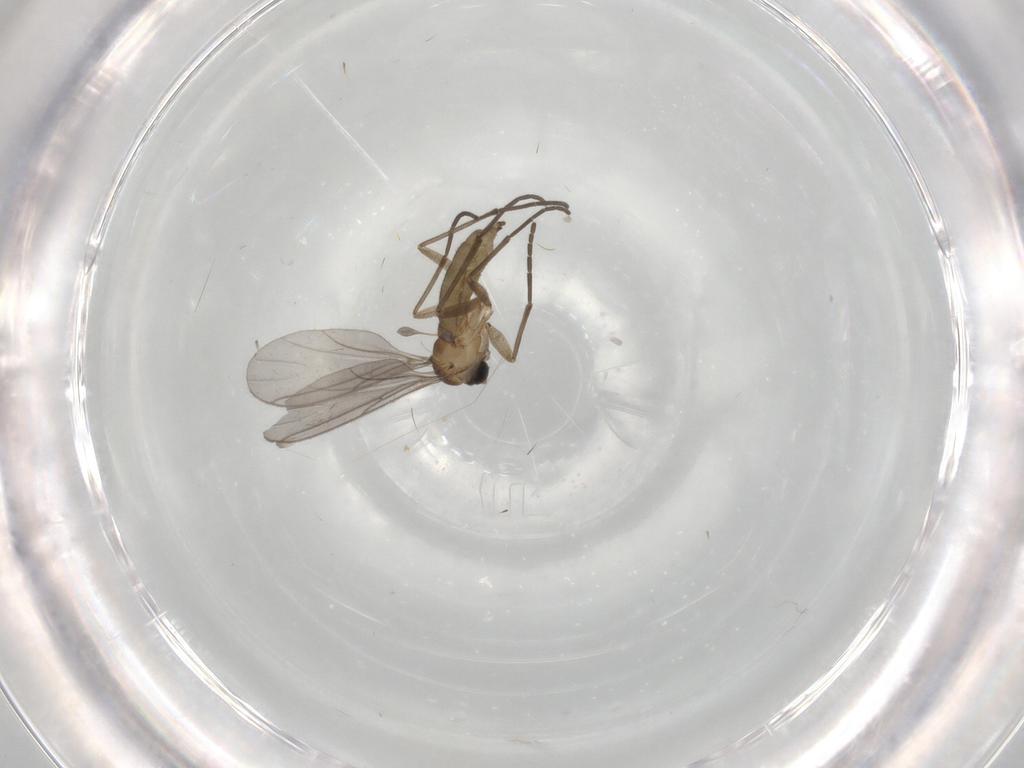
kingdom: Animalia
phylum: Arthropoda
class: Insecta
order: Diptera
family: Sciaridae
